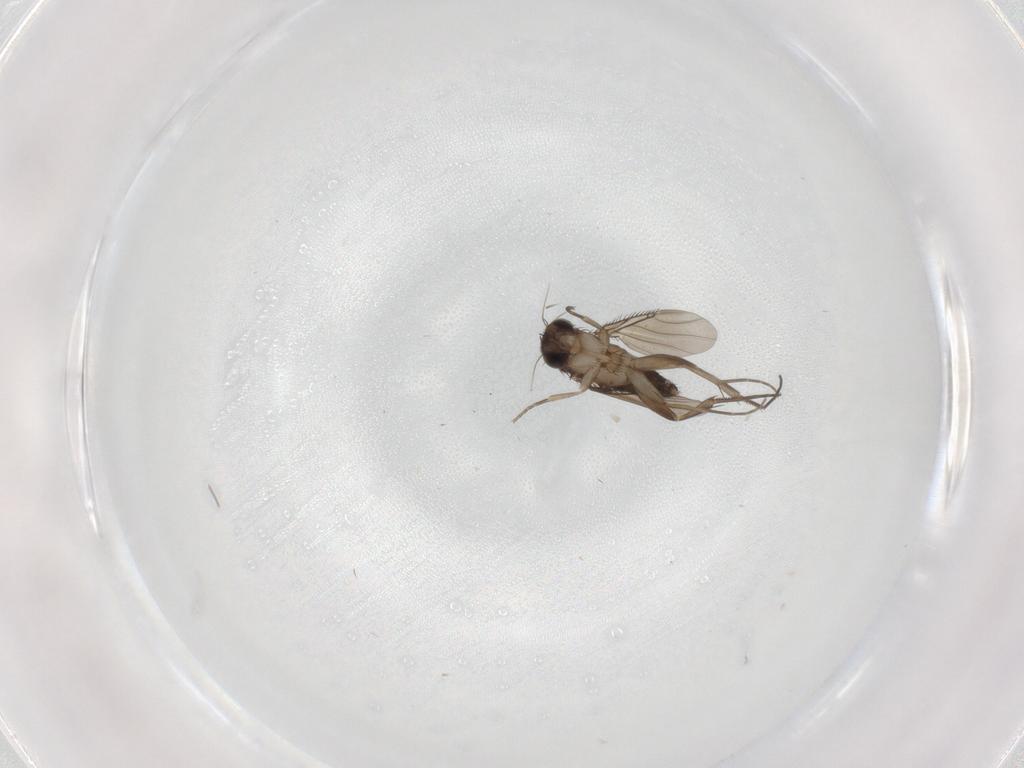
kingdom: Animalia
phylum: Arthropoda
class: Insecta
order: Diptera
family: Phoridae
